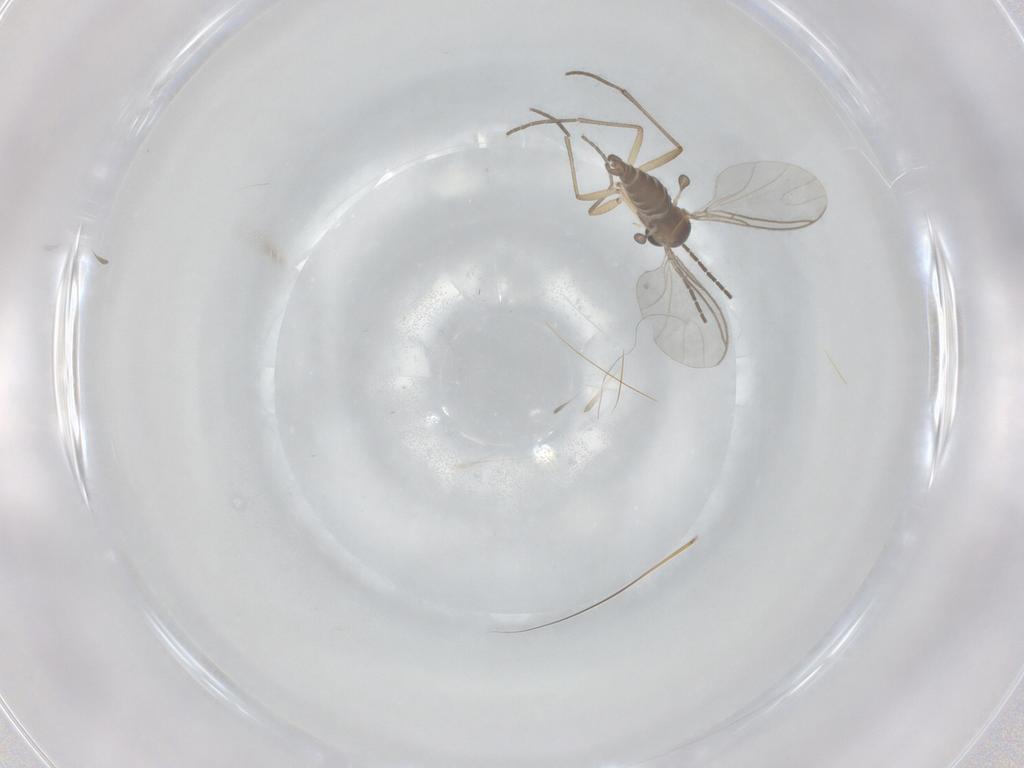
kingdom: Animalia
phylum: Arthropoda
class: Insecta
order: Diptera
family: Sciaridae
